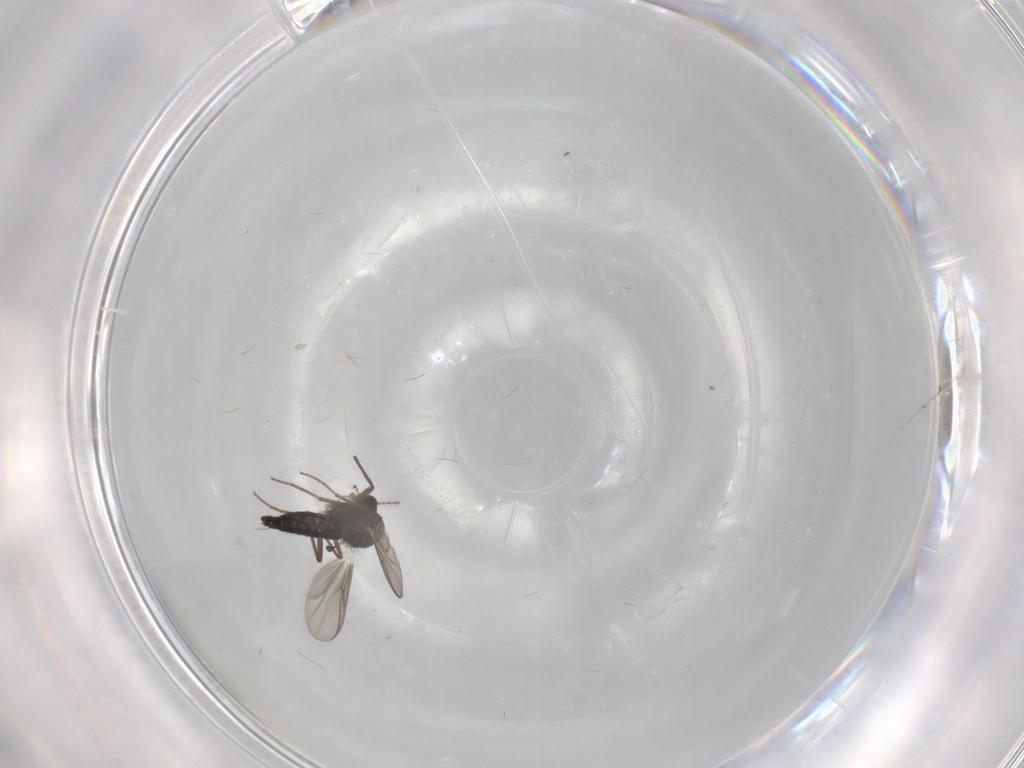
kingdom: Animalia
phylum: Arthropoda
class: Insecta
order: Diptera
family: Chironomidae
